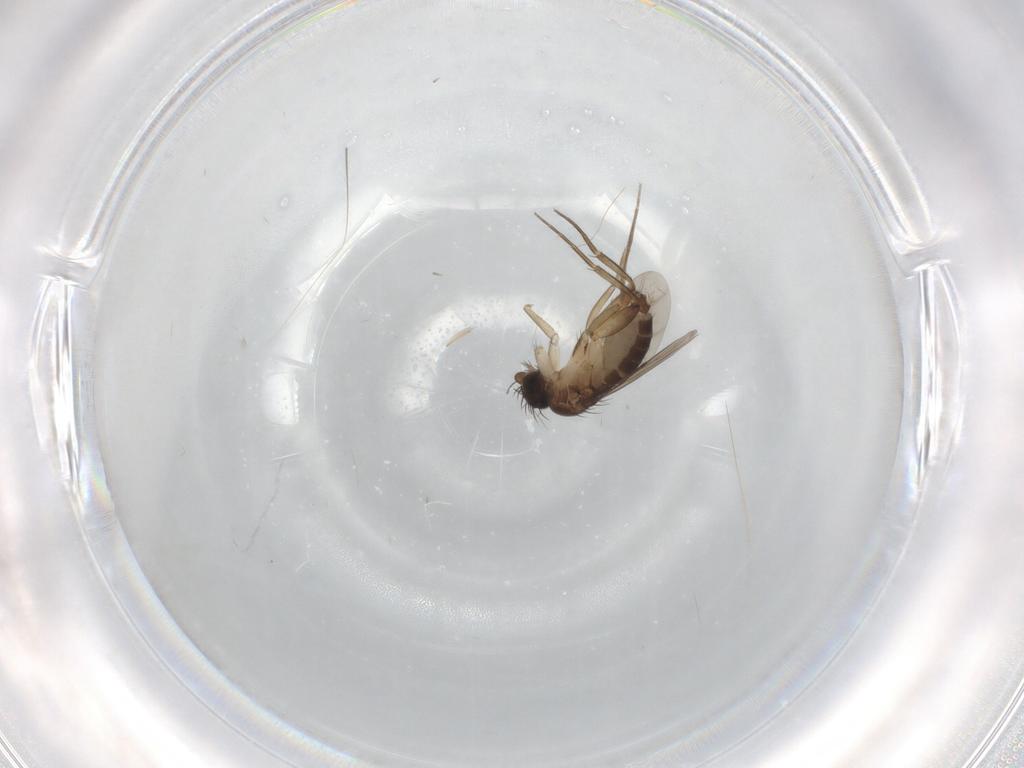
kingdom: Animalia
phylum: Arthropoda
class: Insecta
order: Diptera
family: Phoridae
